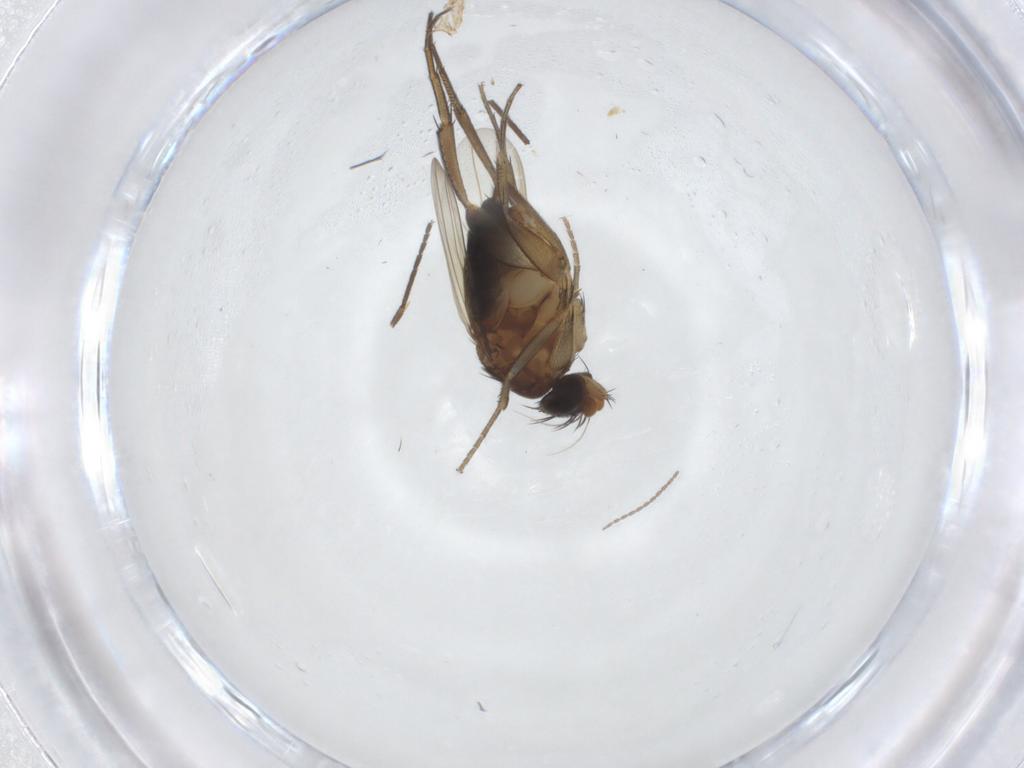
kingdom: Animalia
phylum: Arthropoda
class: Insecta
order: Diptera
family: Phoridae
